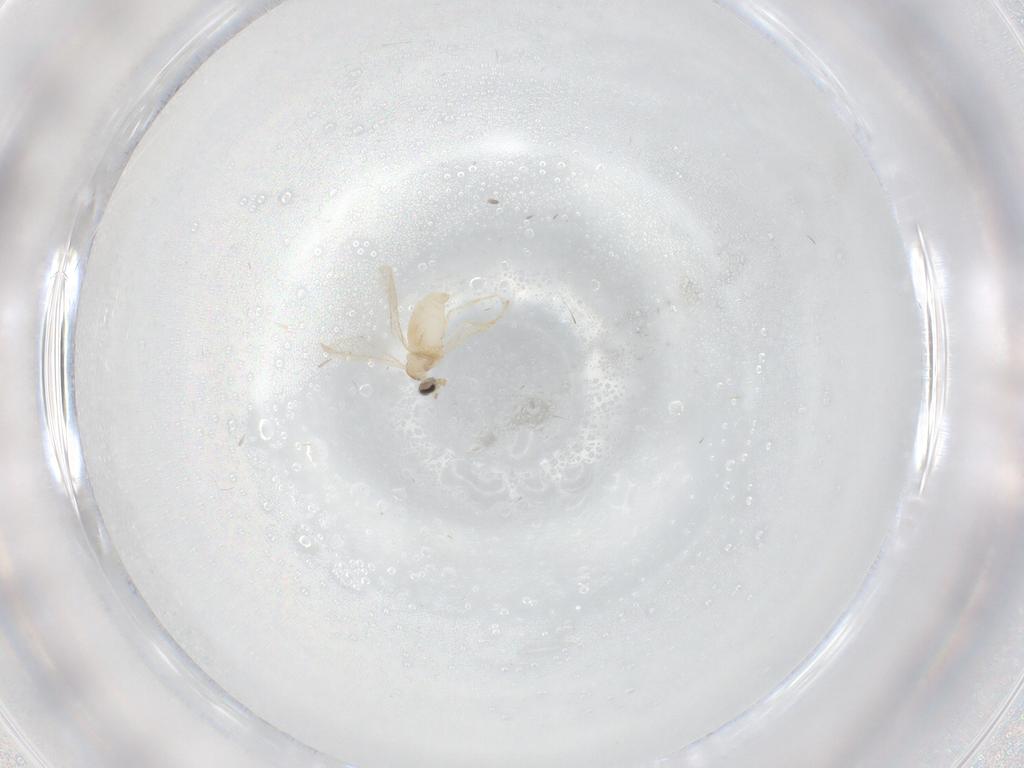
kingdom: Animalia
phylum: Arthropoda
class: Insecta
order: Diptera
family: Cecidomyiidae
